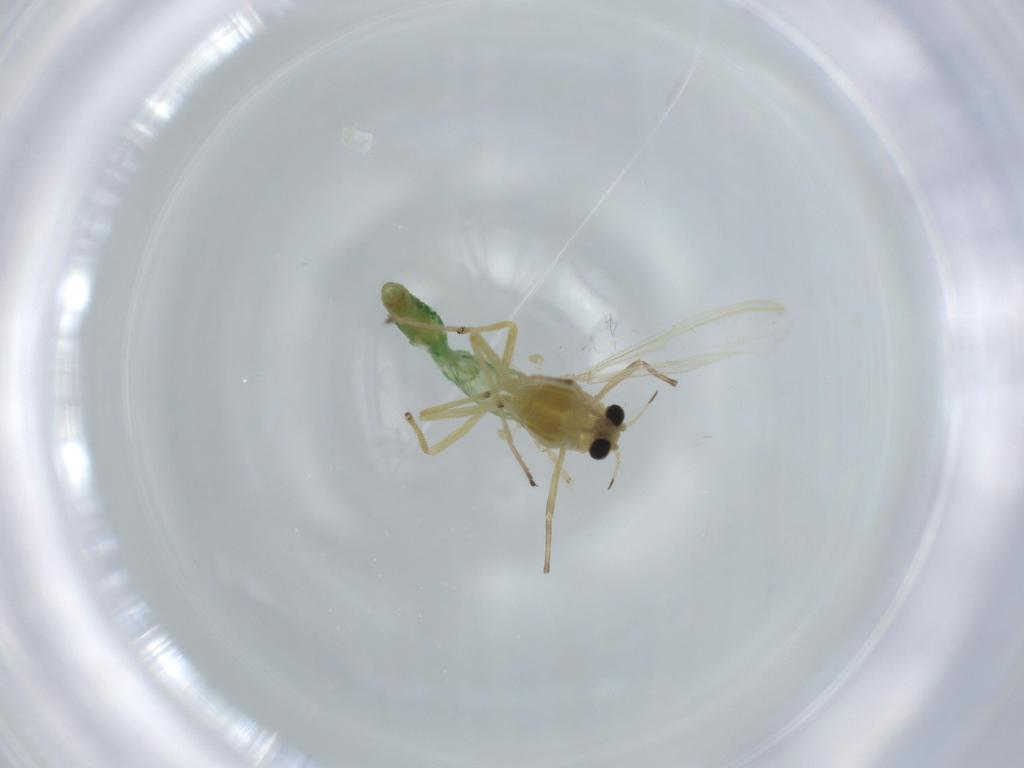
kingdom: Animalia
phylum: Arthropoda
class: Insecta
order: Diptera
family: Chironomidae
